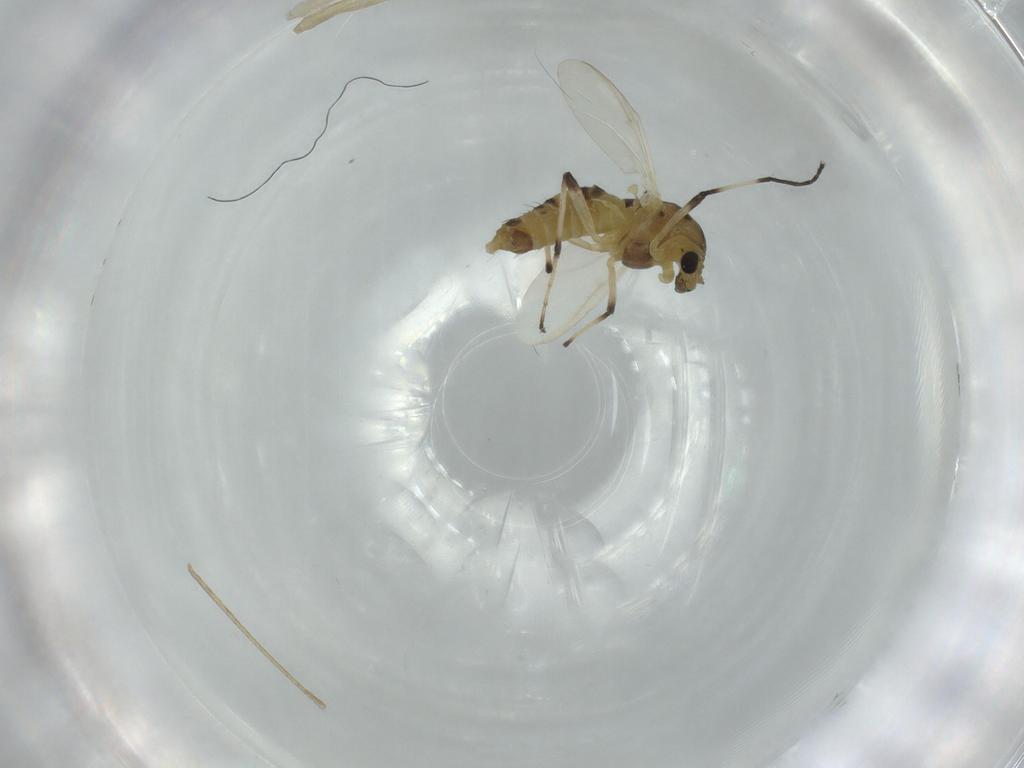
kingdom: Animalia
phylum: Arthropoda
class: Insecta
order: Diptera
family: Chironomidae
